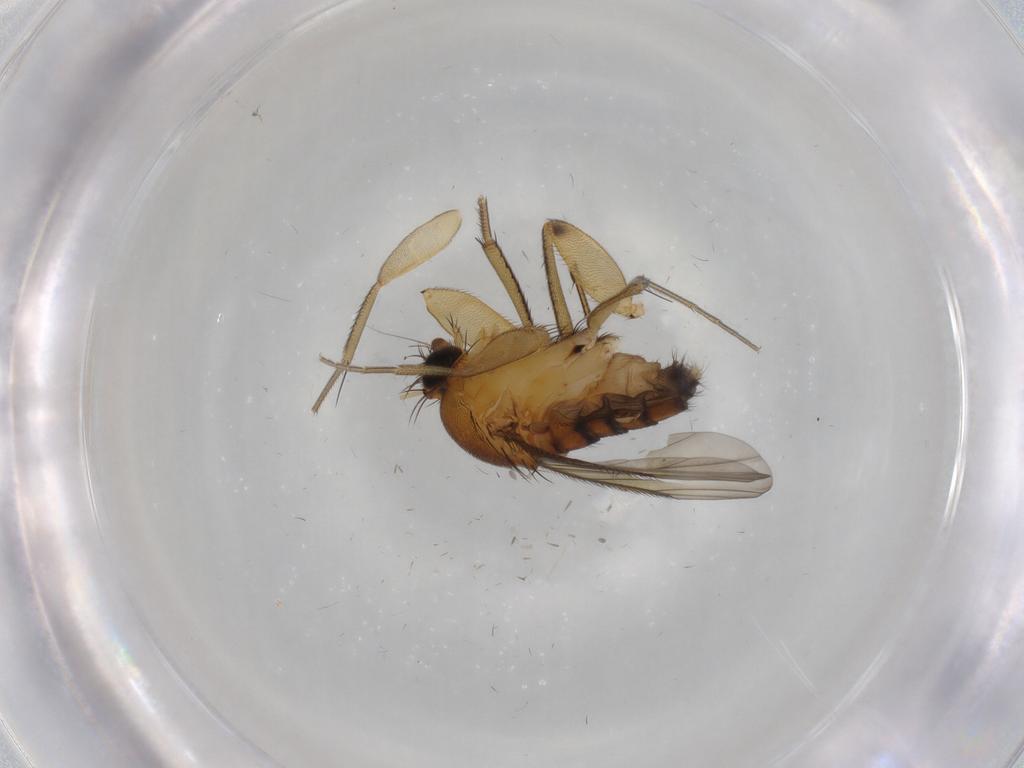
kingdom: Animalia
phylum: Arthropoda
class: Insecta
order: Diptera
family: Phoridae
